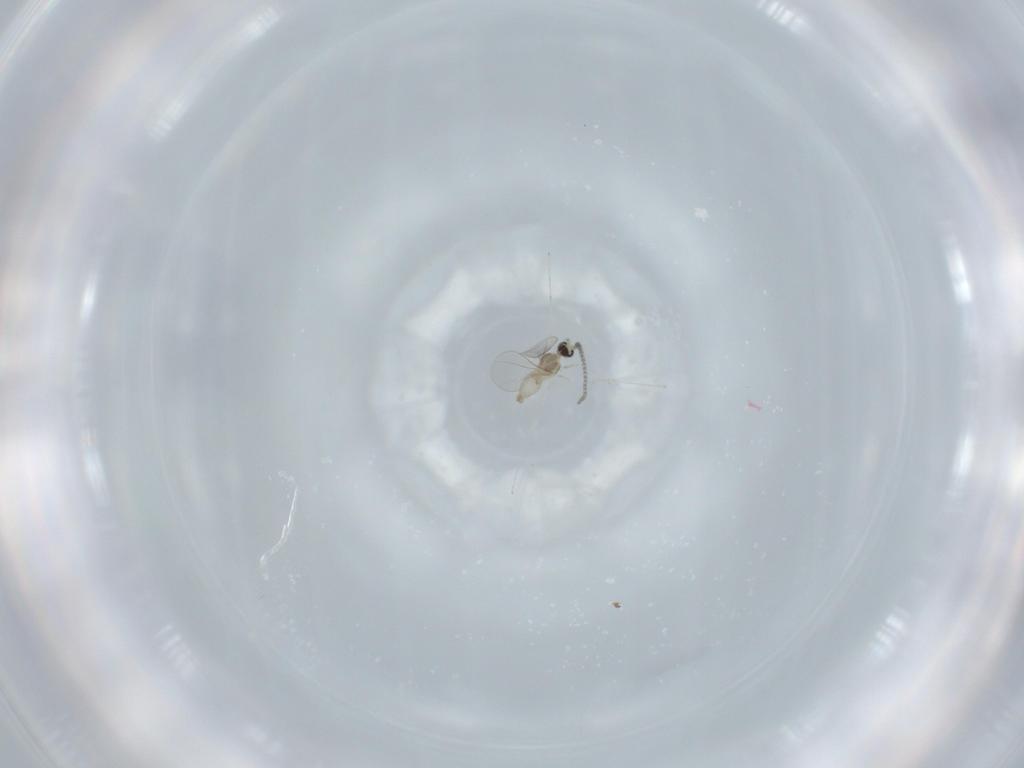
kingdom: Animalia
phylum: Arthropoda
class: Insecta
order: Diptera
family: Cecidomyiidae
